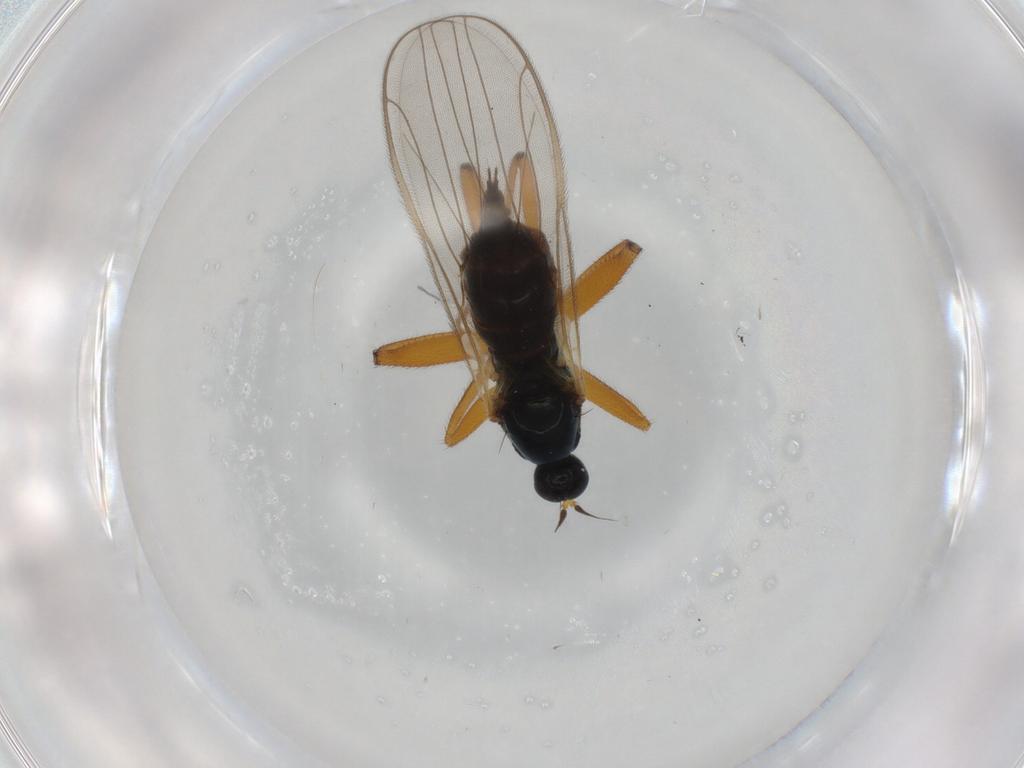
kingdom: Animalia
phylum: Arthropoda
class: Insecta
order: Diptera
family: Hybotidae
